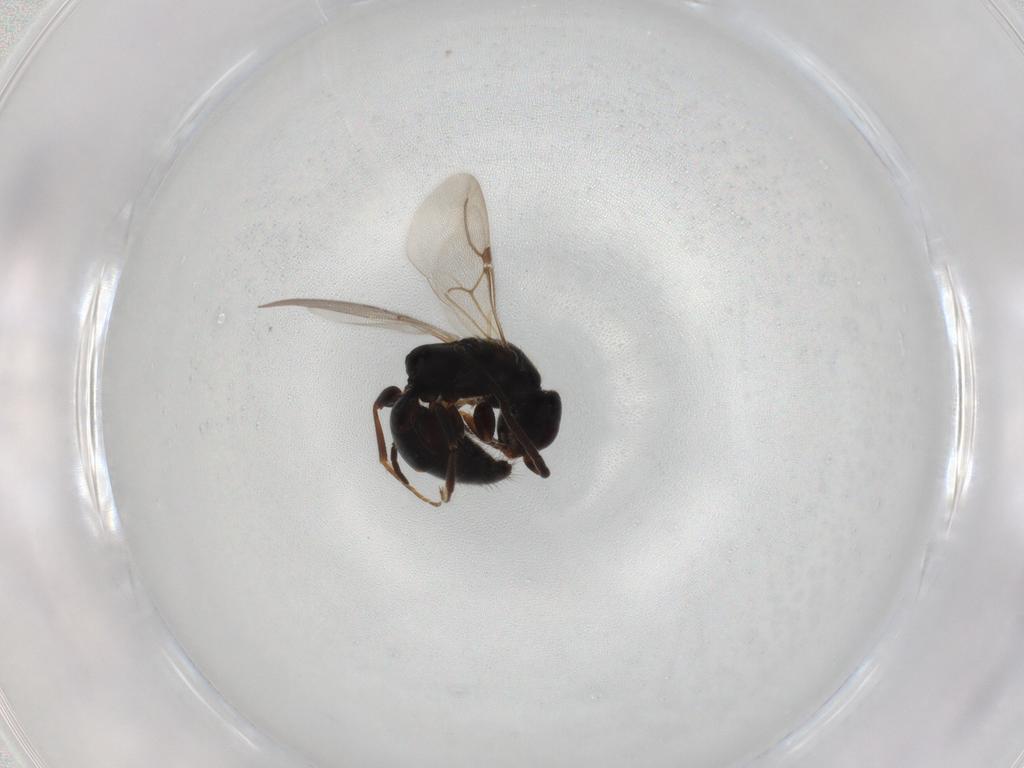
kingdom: Animalia
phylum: Arthropoda
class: Insecta
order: Hymenoptera
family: Bethylidae
